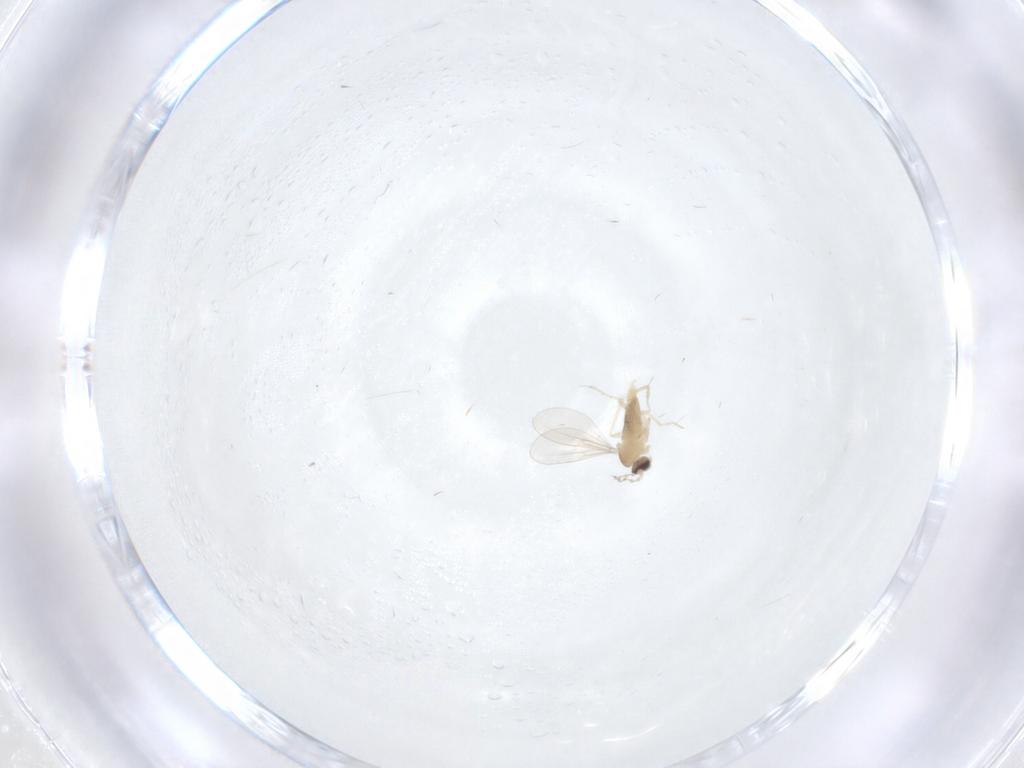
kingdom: Animalia
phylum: Arthropoda
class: Insecta
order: Diptera
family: Cecidomyiidae
